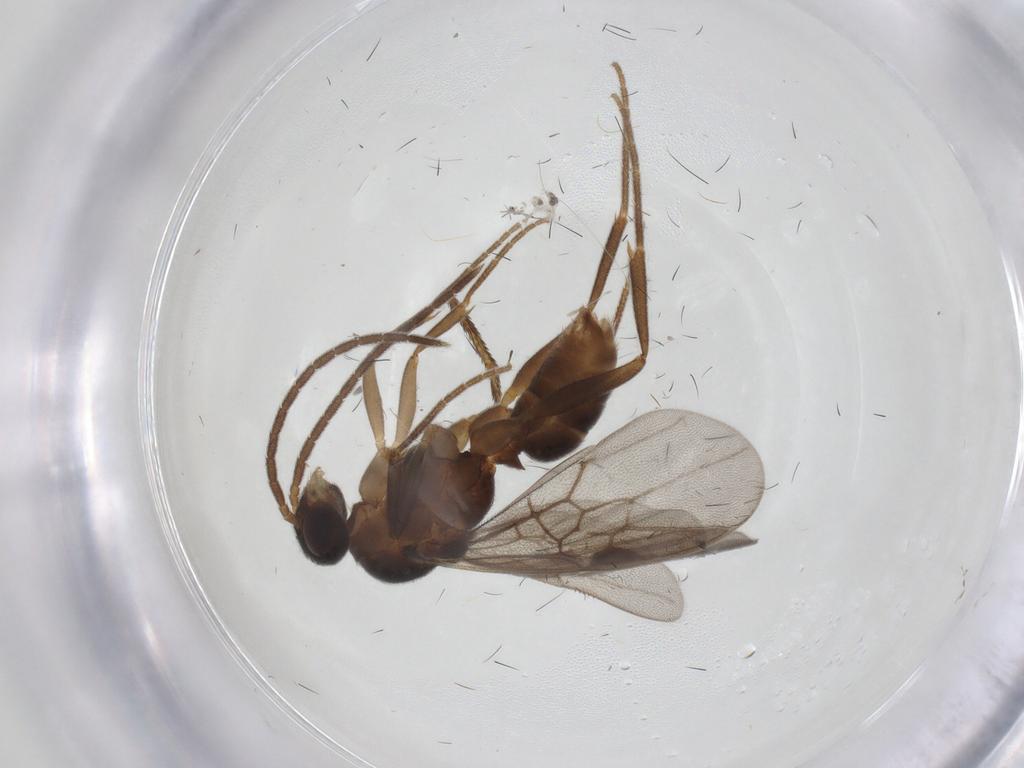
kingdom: Animalia
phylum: Arthropoda
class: Insecta
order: Hymenoptera
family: Formicidae
